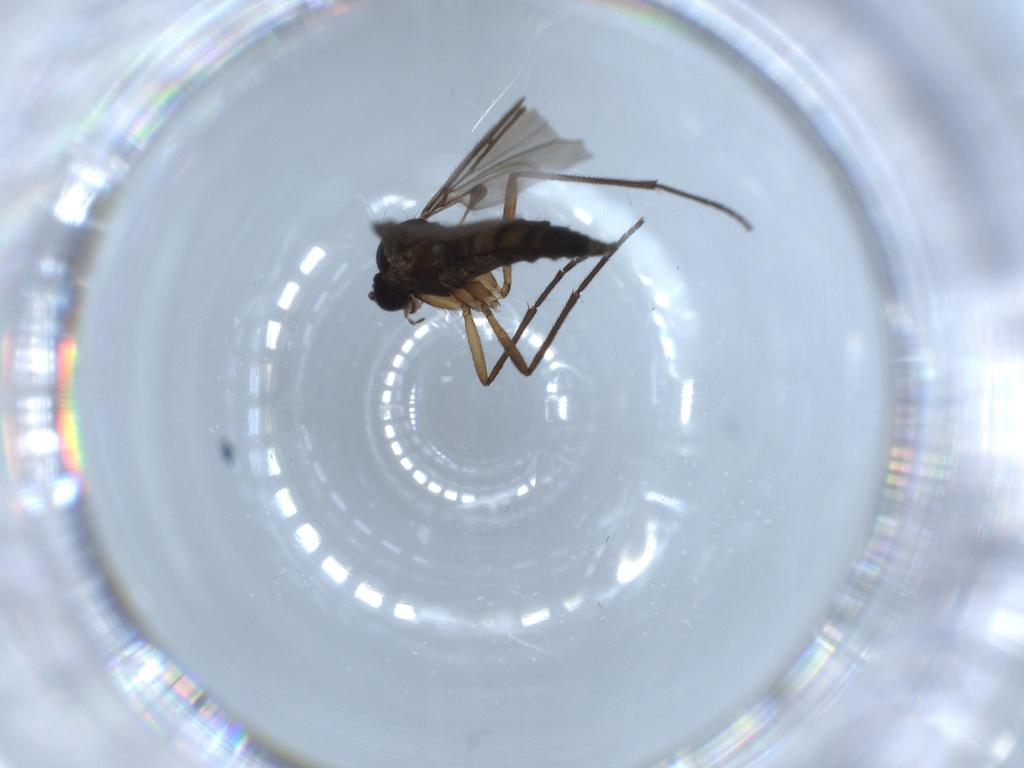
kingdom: Animalia
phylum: Arthropoda
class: Insecta
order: Diptera
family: Sciaridae
